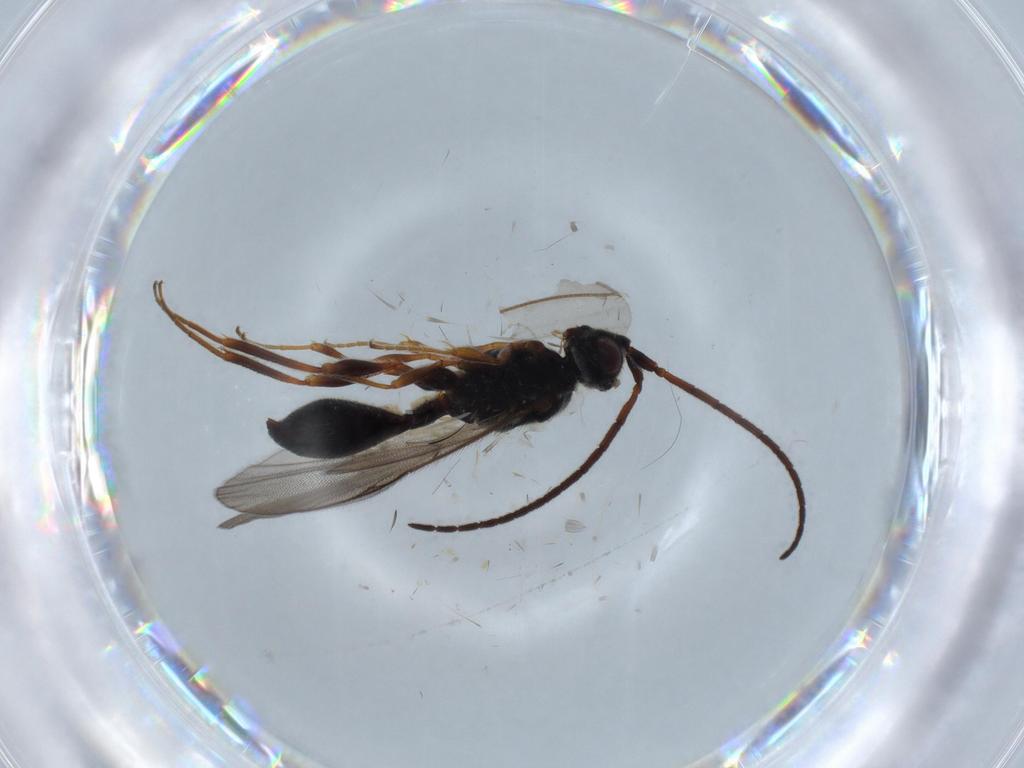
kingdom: Animalia
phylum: Arthropoda
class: Insecta
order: Hymenoptera
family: Diapriidae
